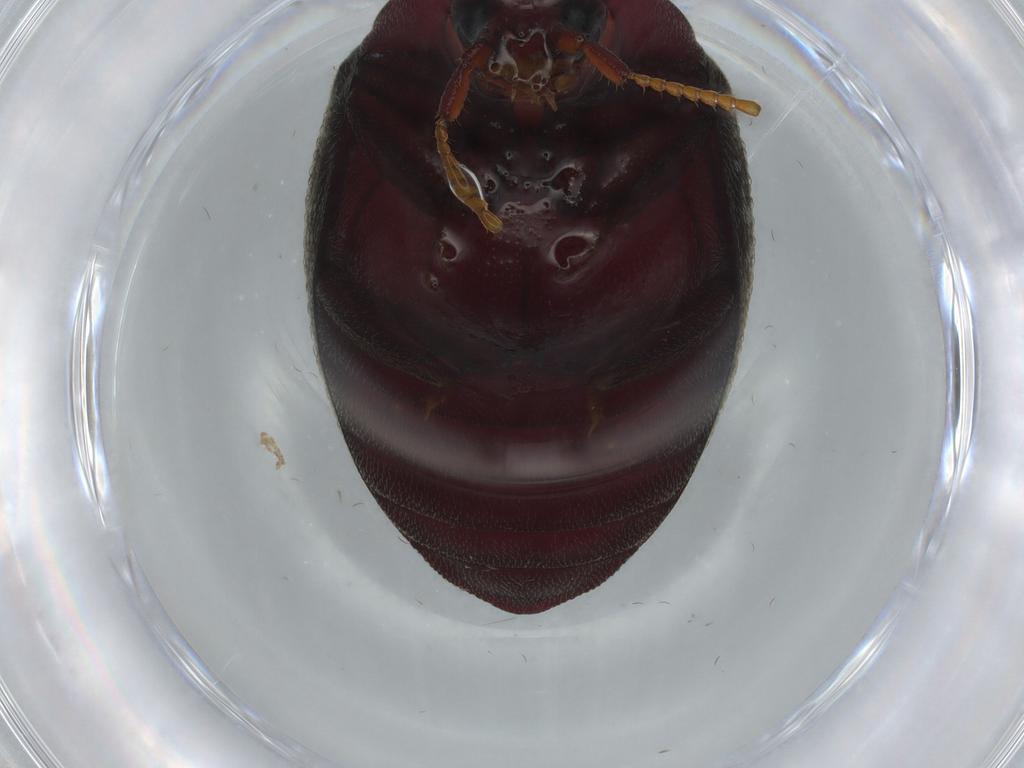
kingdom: Animalia
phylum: Arthropoda
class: Insecta
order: Coleoptera
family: Chelonariidae
